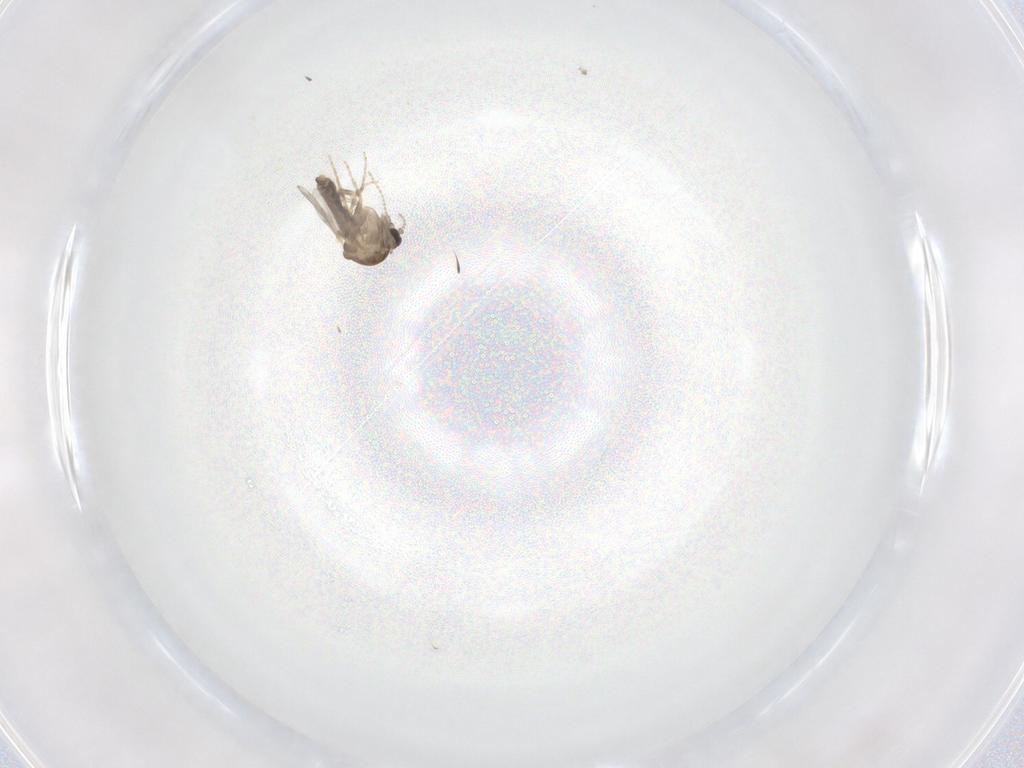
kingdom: Animalia
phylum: Arthropoda
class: Insecta
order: Diptera
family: Ceratopogonidae
